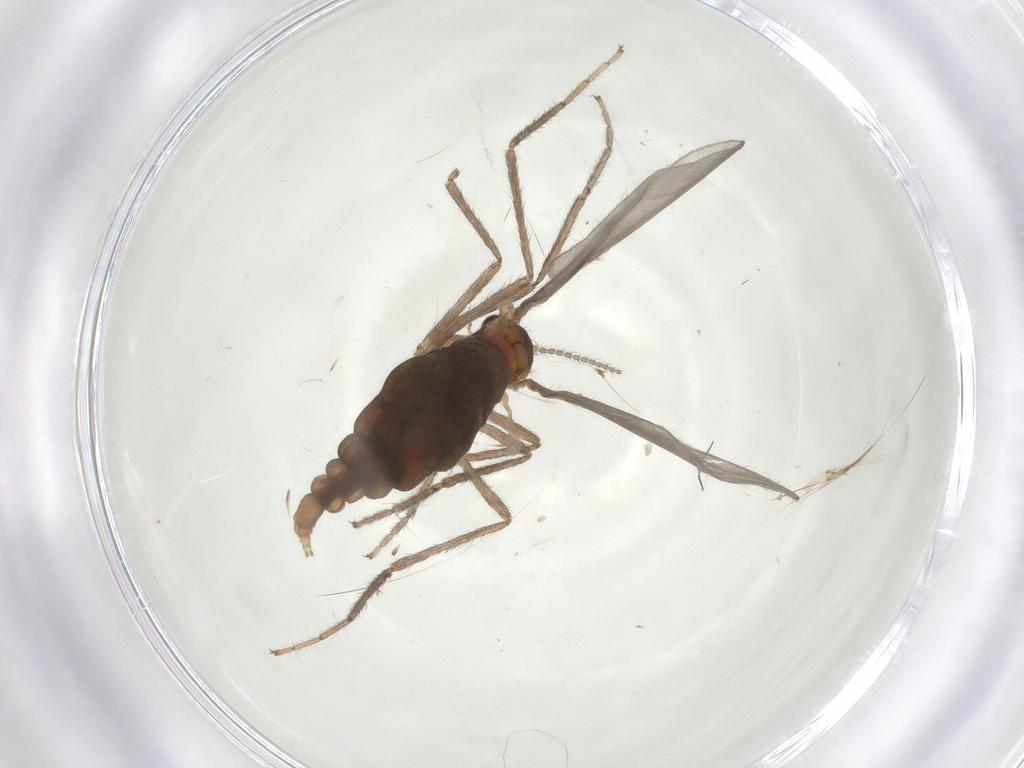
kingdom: Animalia
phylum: Arthropoda
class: Insecta
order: Diptera
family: Cecidomyiidae
